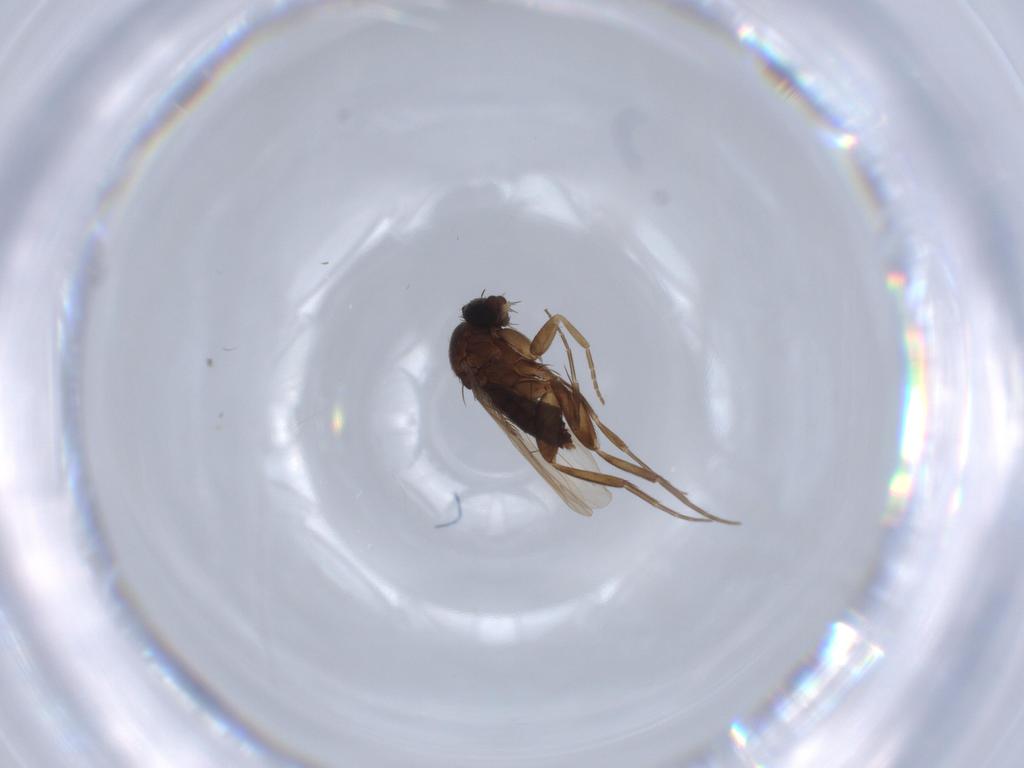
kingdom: Animalia
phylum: Arthropoda
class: Insecta
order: Diptera
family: Phoridae
